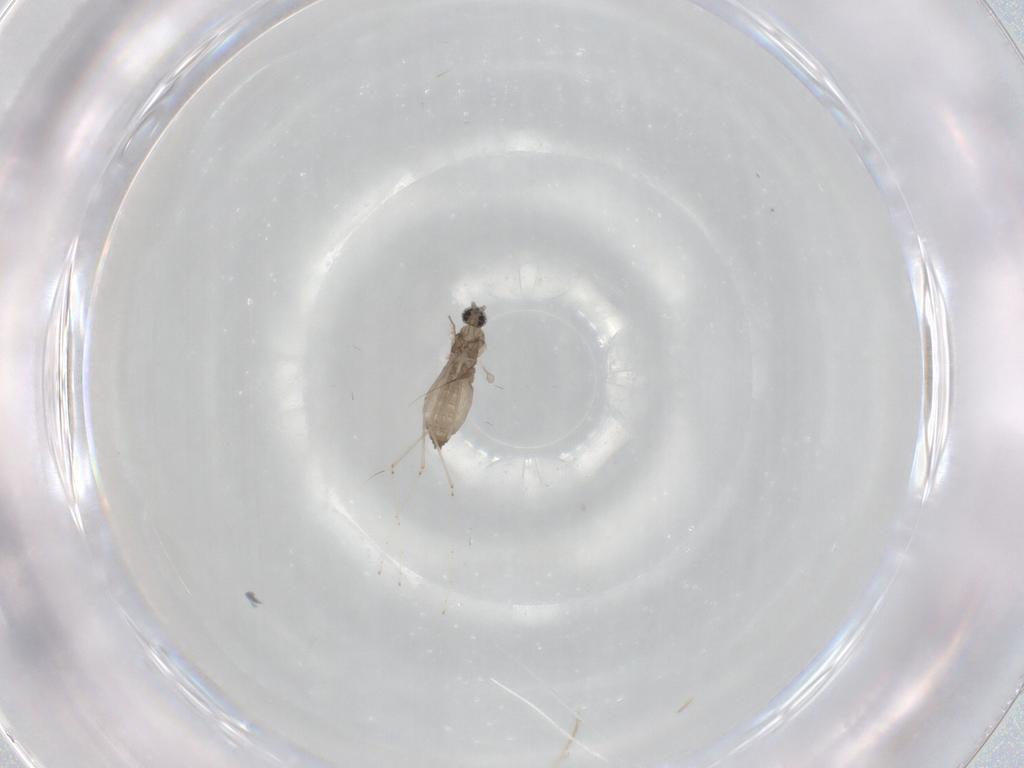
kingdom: Animalia
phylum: Arthropoda
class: Insecta
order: Diptera
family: Cecidomyiidae
